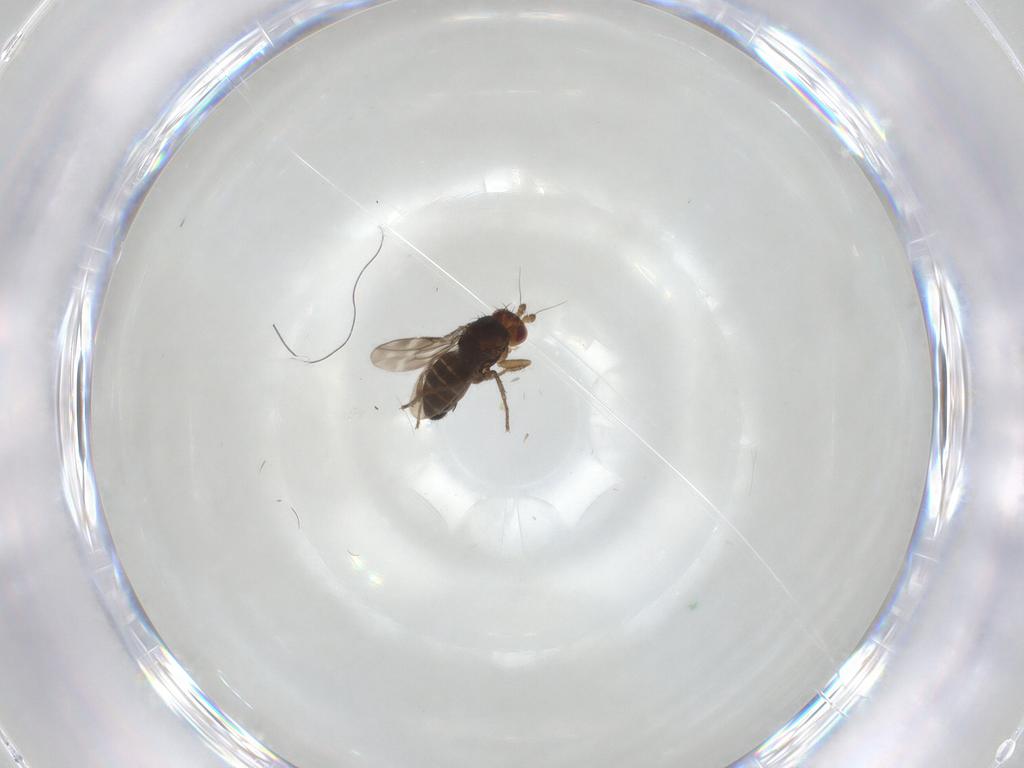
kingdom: Animalia
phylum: Arthropoda
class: Insecta
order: Diptera
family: Sphaeroceridae
